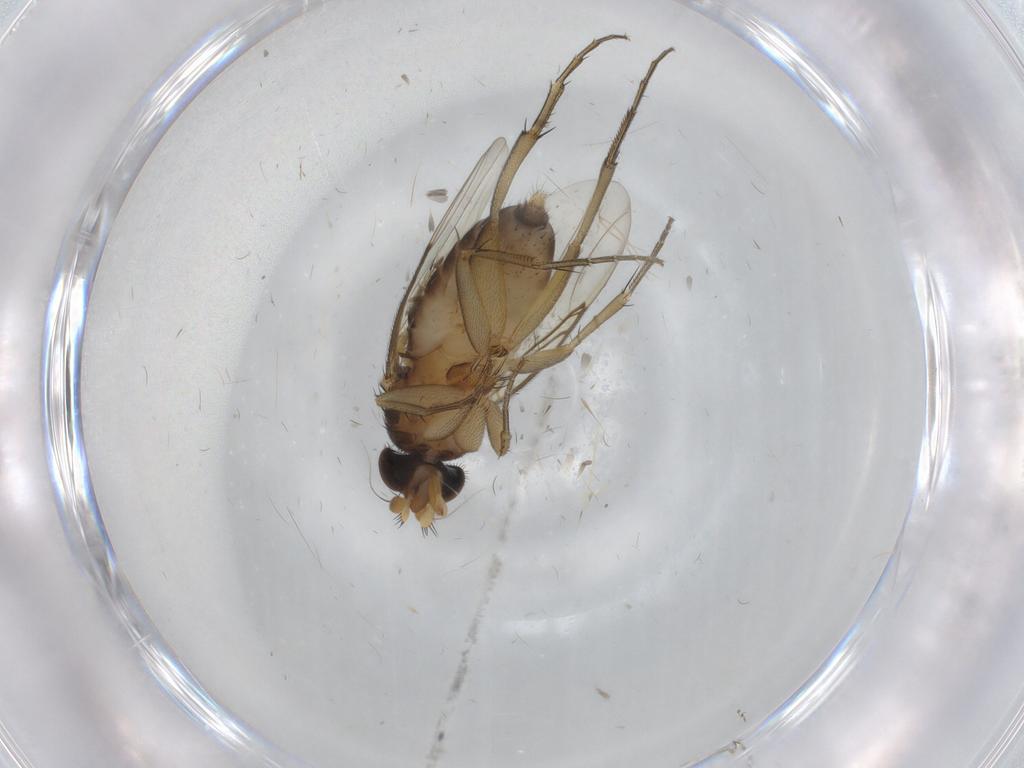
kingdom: Animalia
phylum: Arthropoda
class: Insecta
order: Diptera
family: Phoridae
